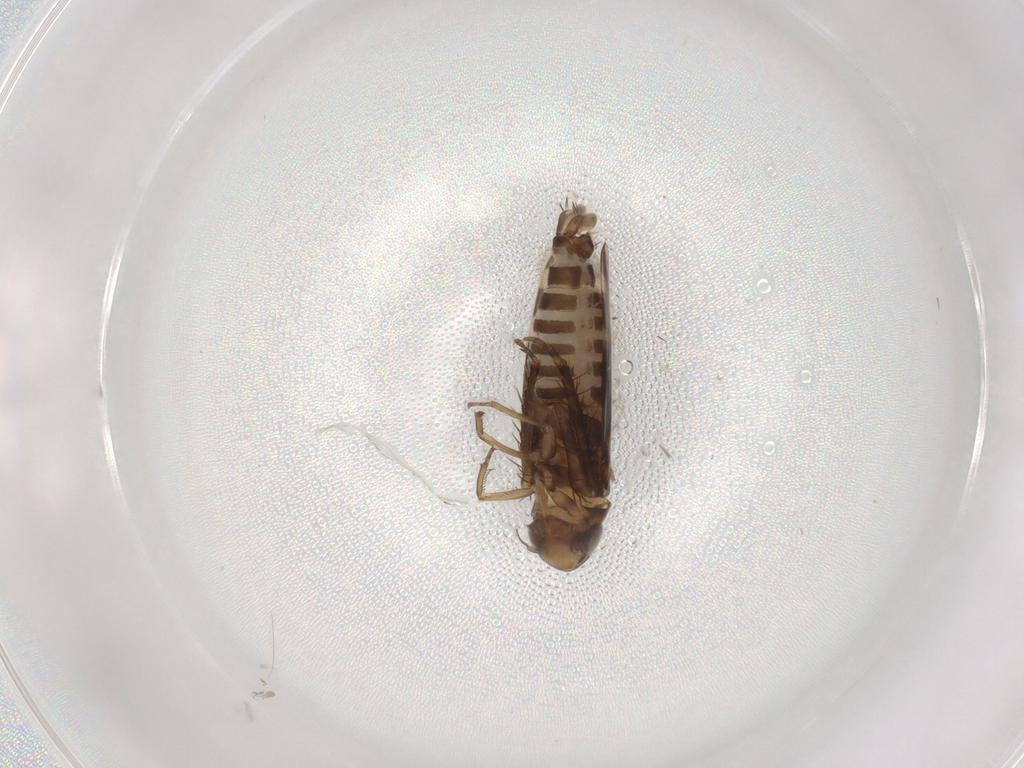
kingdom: Animalia
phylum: Arthropoda
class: Insecta
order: Hemiptera
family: Cicadellidae
